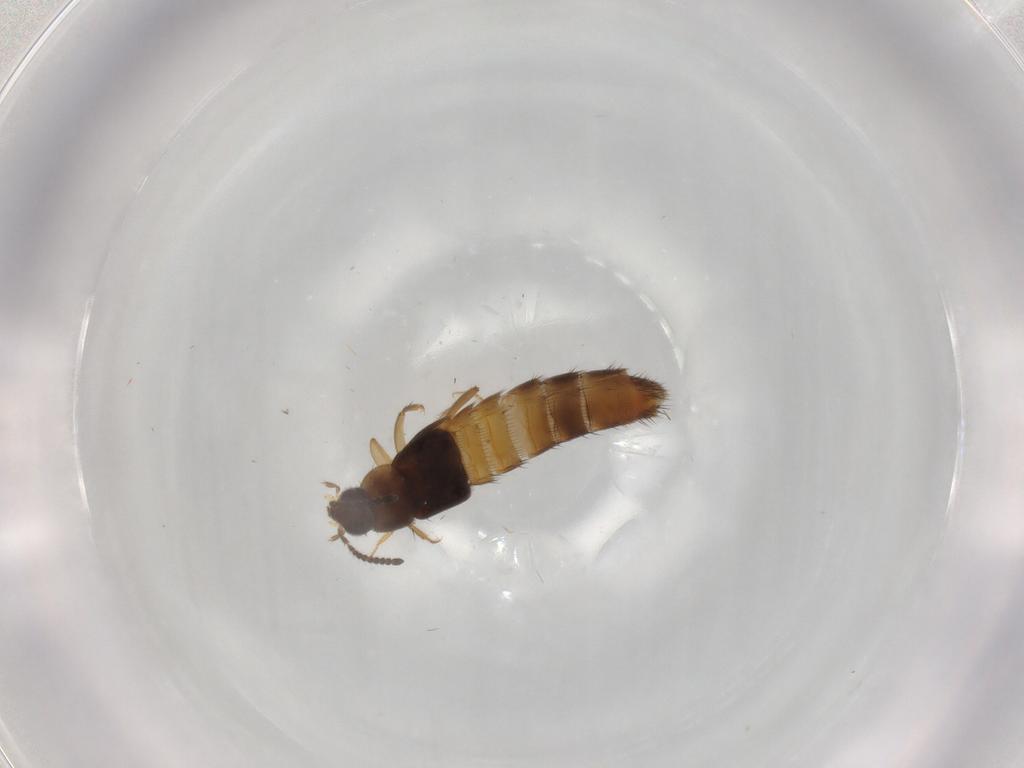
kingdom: Animalia
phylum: Arthropoda
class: Insecta
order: Coleoptera
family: Staphylinidae
